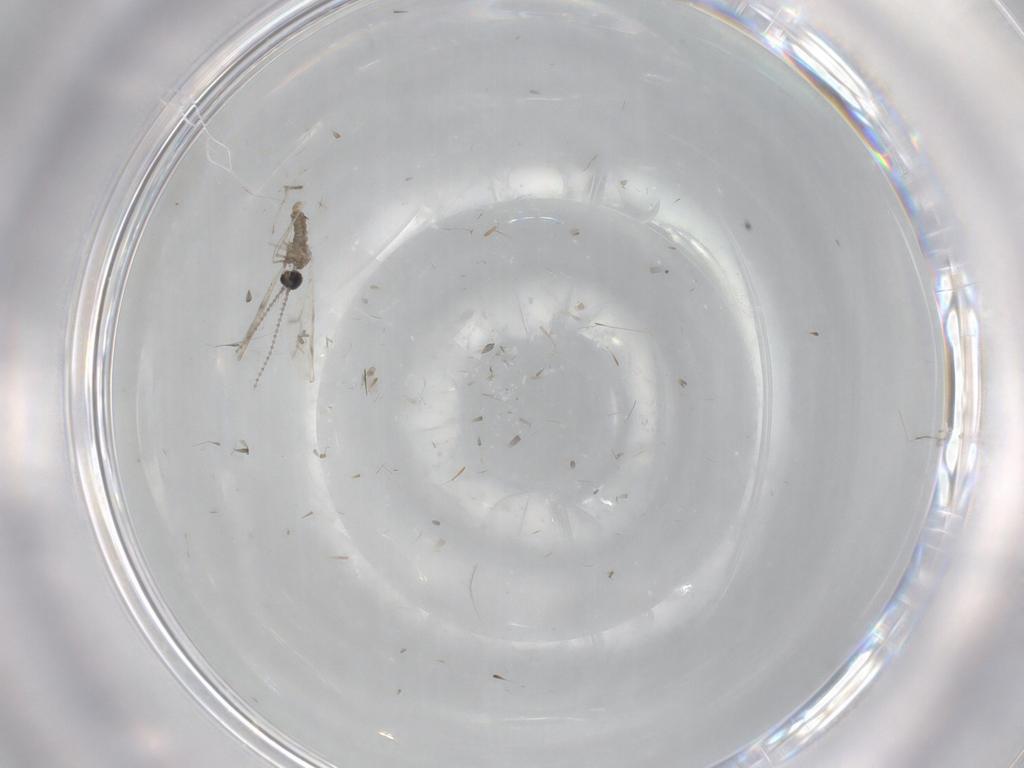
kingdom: Animalia
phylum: Arthropoda
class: Insecta
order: Diptera
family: Cecidomyiidae
